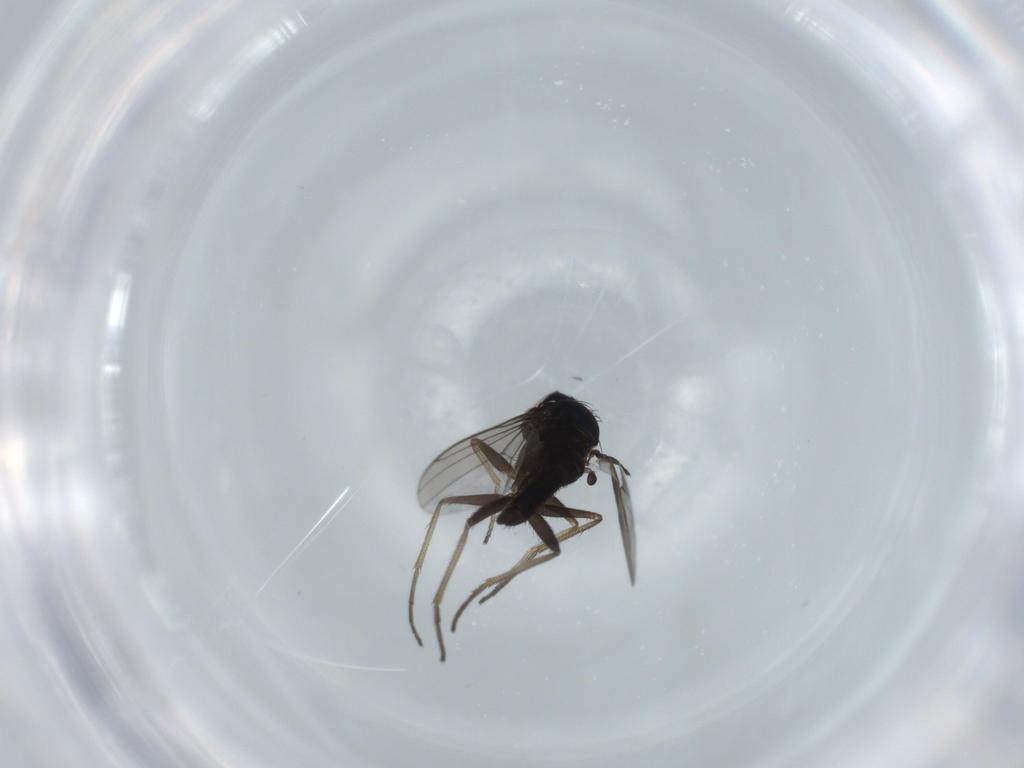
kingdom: Animalia
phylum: Arthropoda
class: Insecta
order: Diptera
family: Dolichopodidae
